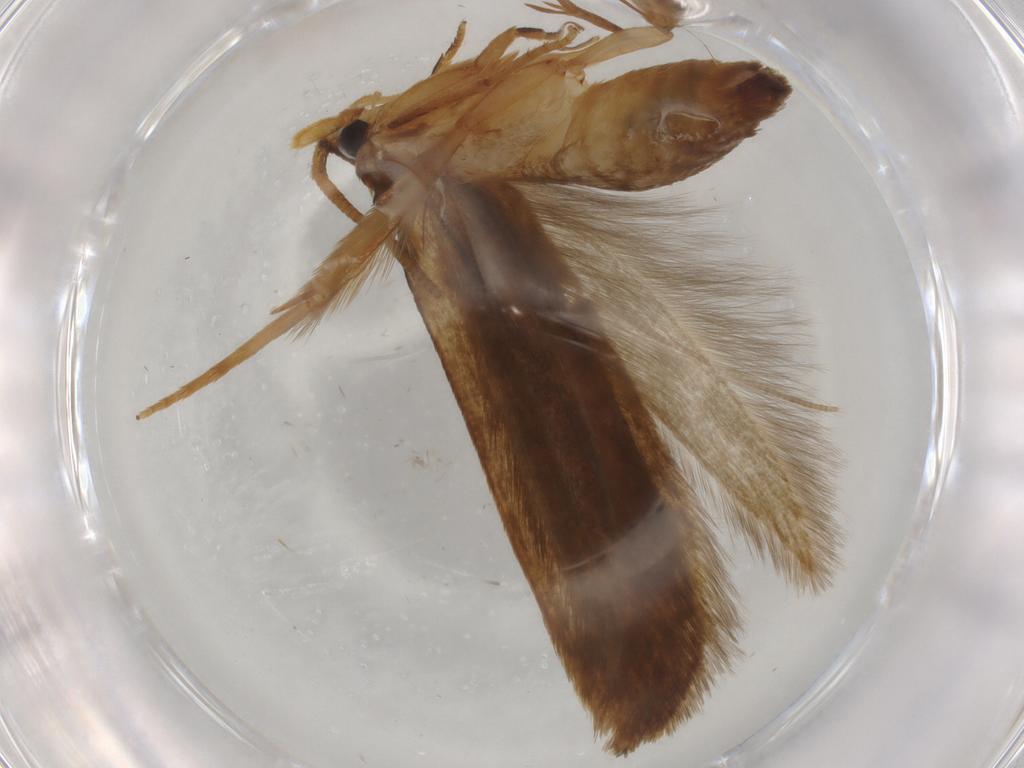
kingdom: Animalia
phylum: Arthropoda
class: Insecta
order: Lepidoptera
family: Tineidae
